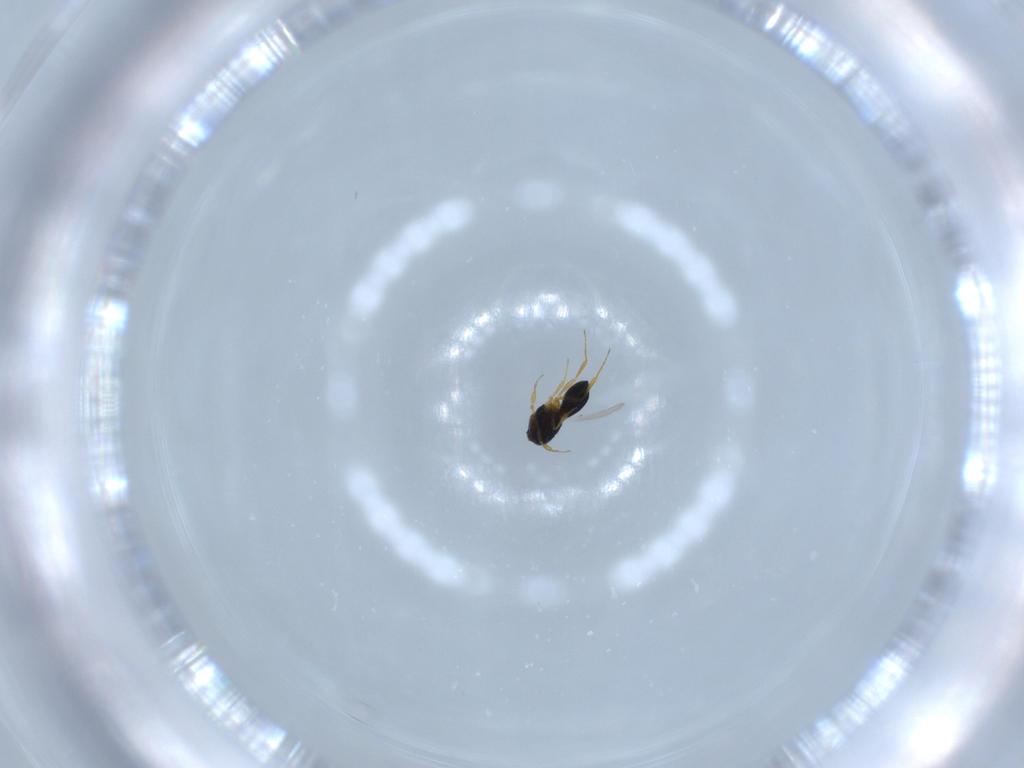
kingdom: Animalia
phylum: Arthropoda
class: Insecta
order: Hymenoptera
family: Scelionidae
